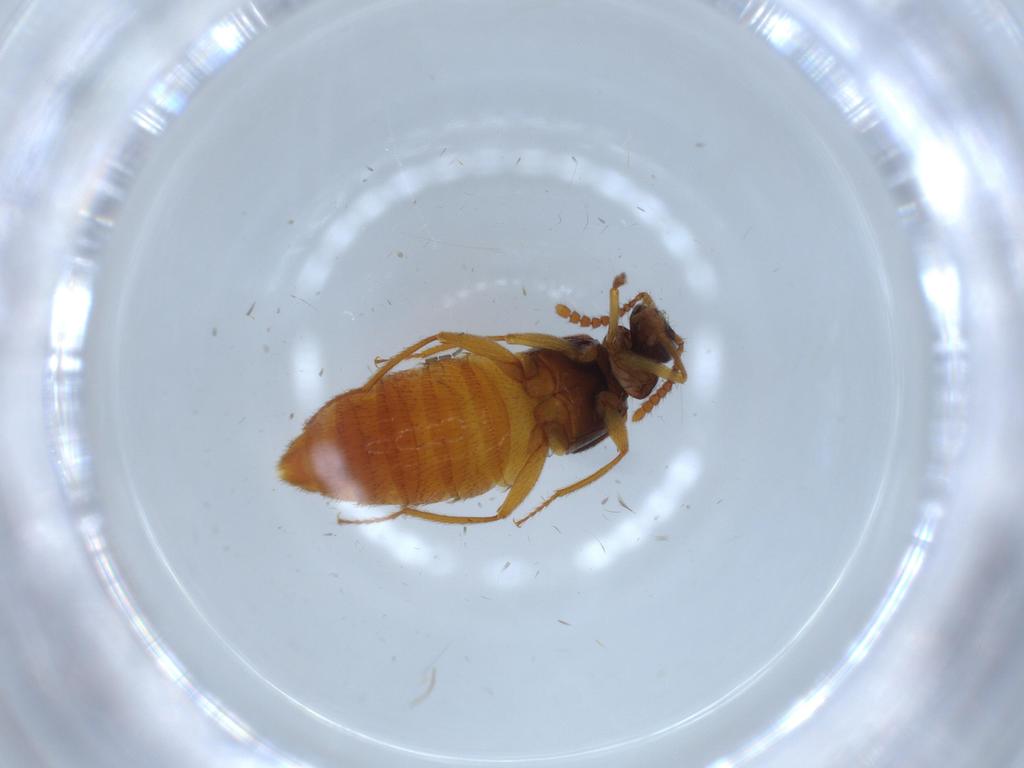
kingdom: Animalia
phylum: Arthropoda
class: Insecta
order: Coleoptera
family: Staphylinidae
